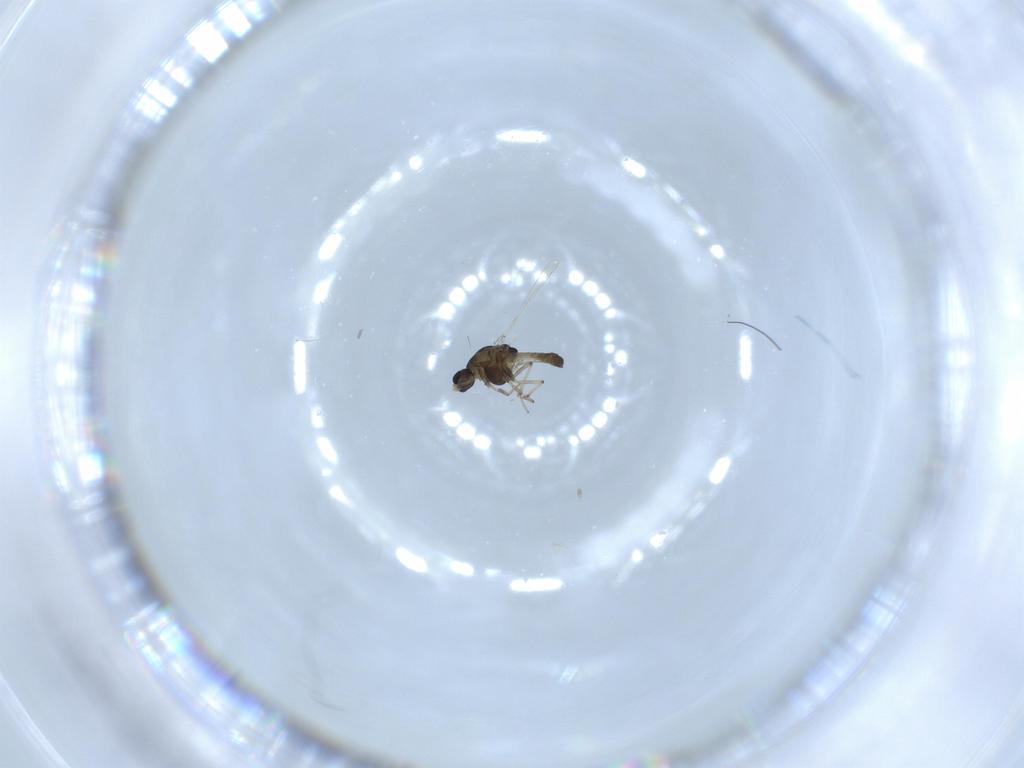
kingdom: Animalia
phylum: Arthropoda
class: Insecta
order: Diptera
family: Chironomidae
